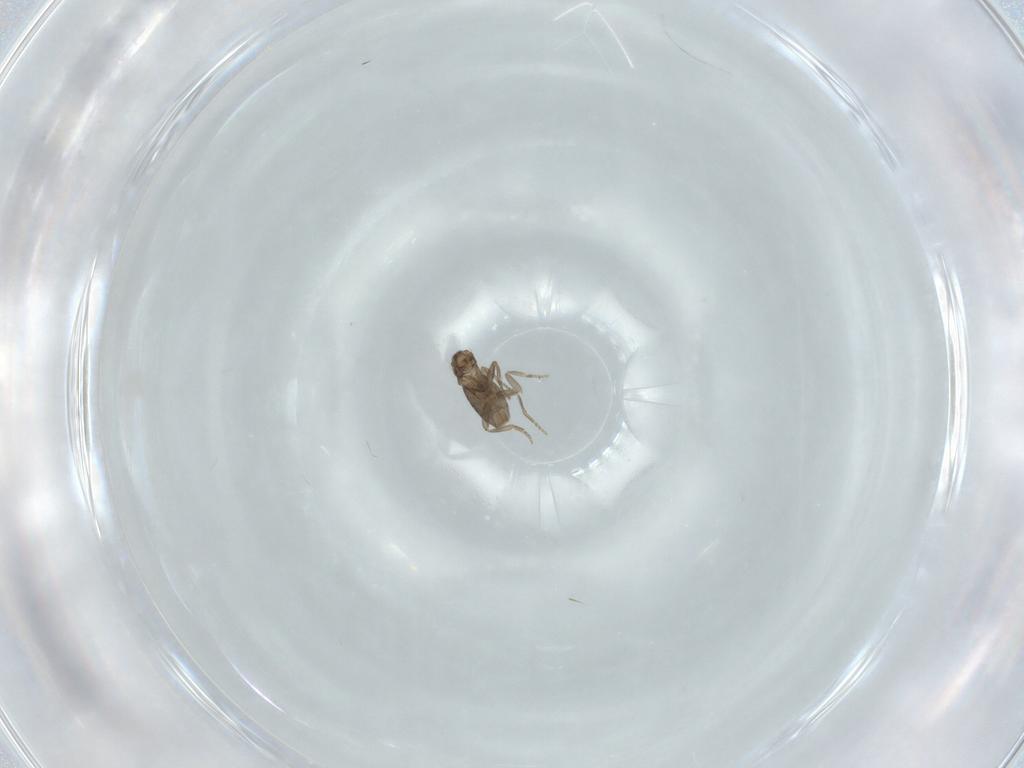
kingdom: Animalia
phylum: Arthropoda
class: Insecta
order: Diptera
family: Phoridae
